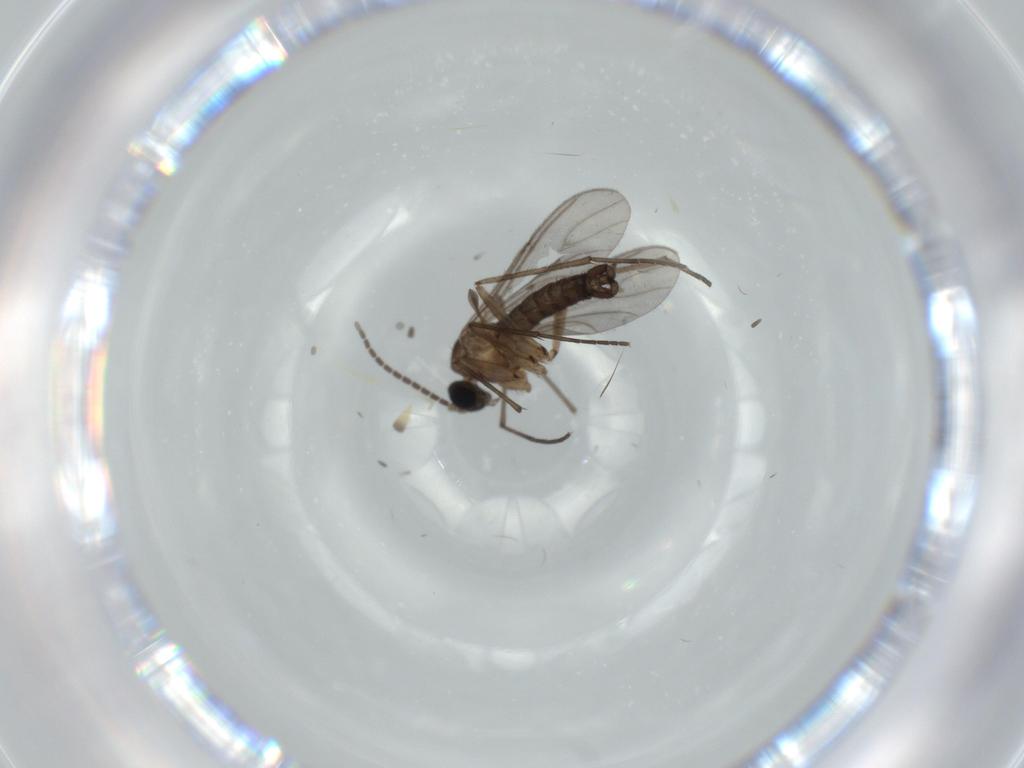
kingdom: Animalia
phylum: Arthropoda
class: Insecta
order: Diptera
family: Sciaridae
